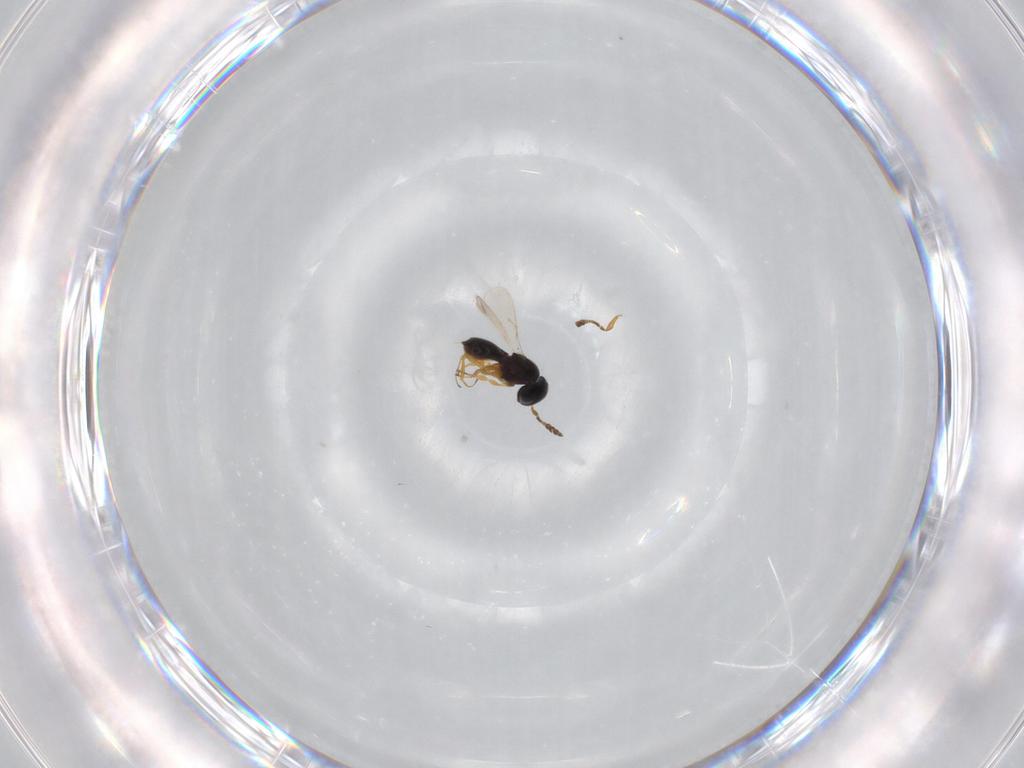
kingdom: Animalia
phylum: Arthropoda
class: Insecta
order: Hymenoptera
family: Scelionidae
